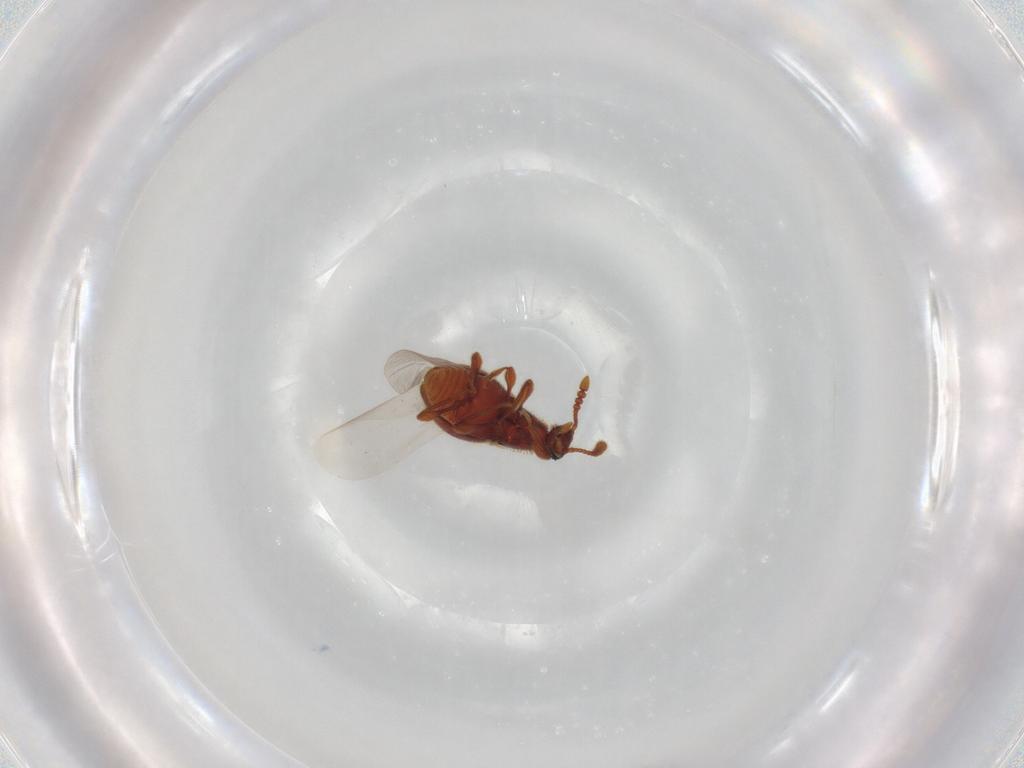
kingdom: Animalia
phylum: Arthropoda
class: Insecta
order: Coleoptera
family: Staphylinidae
